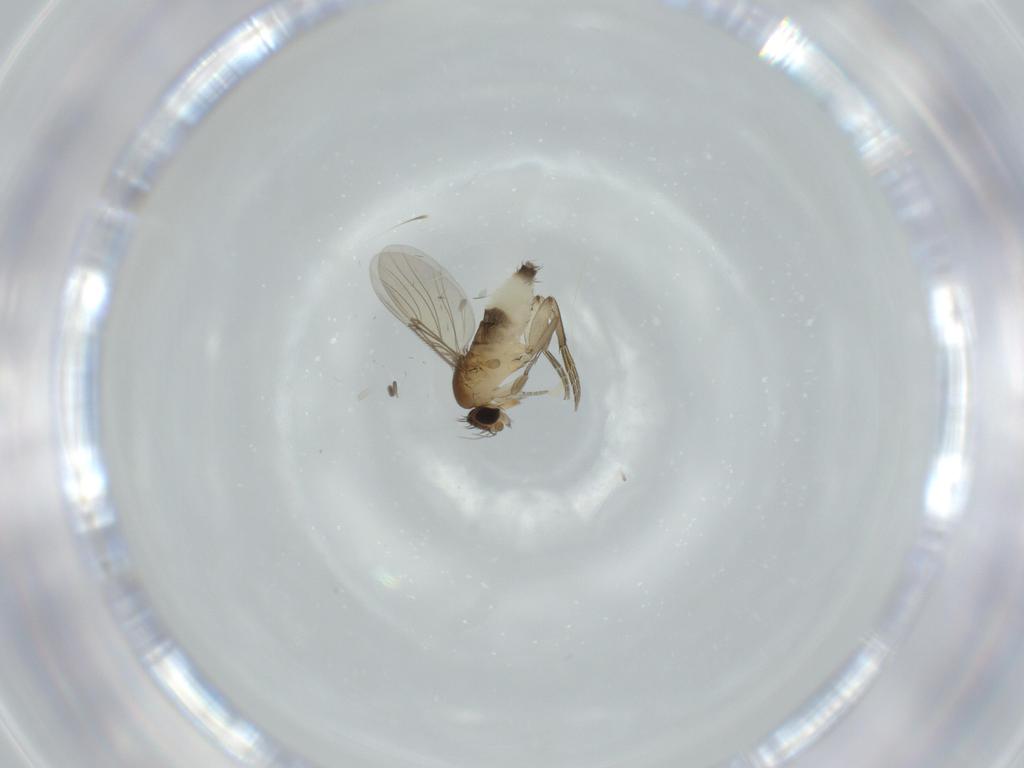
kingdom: Animalia
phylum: Arthropoda
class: Insecta
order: Diptera
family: Phoridae
